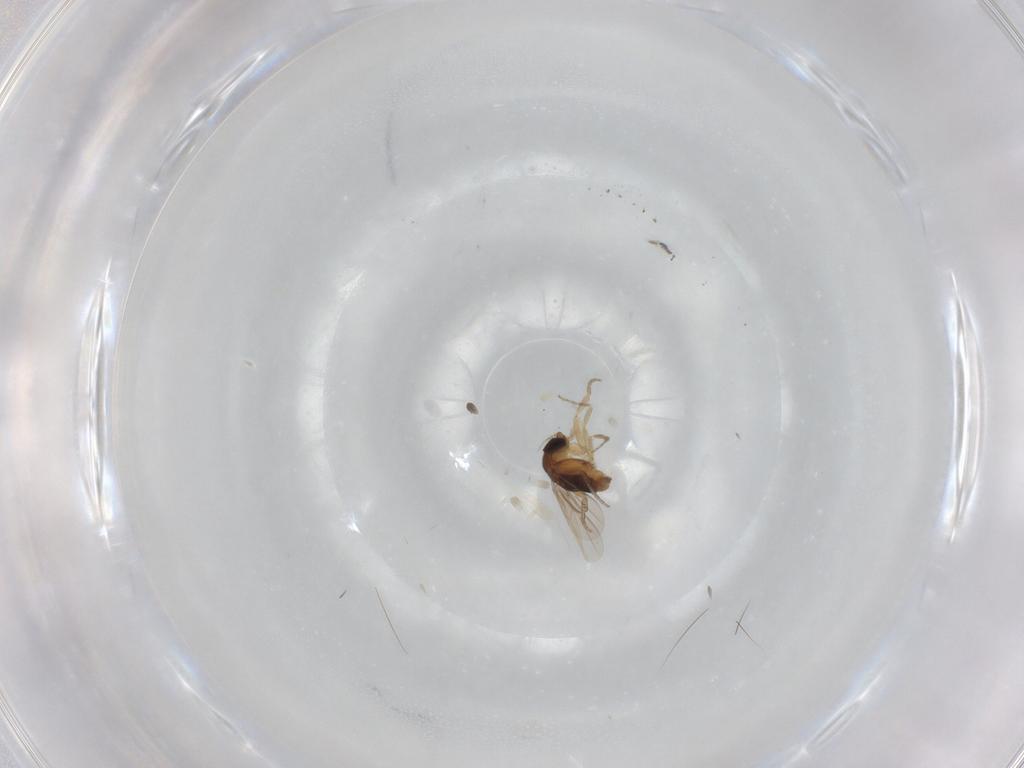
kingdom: Animalia
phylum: Arthropoda
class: Insecta
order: Diptera
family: Phoridae
